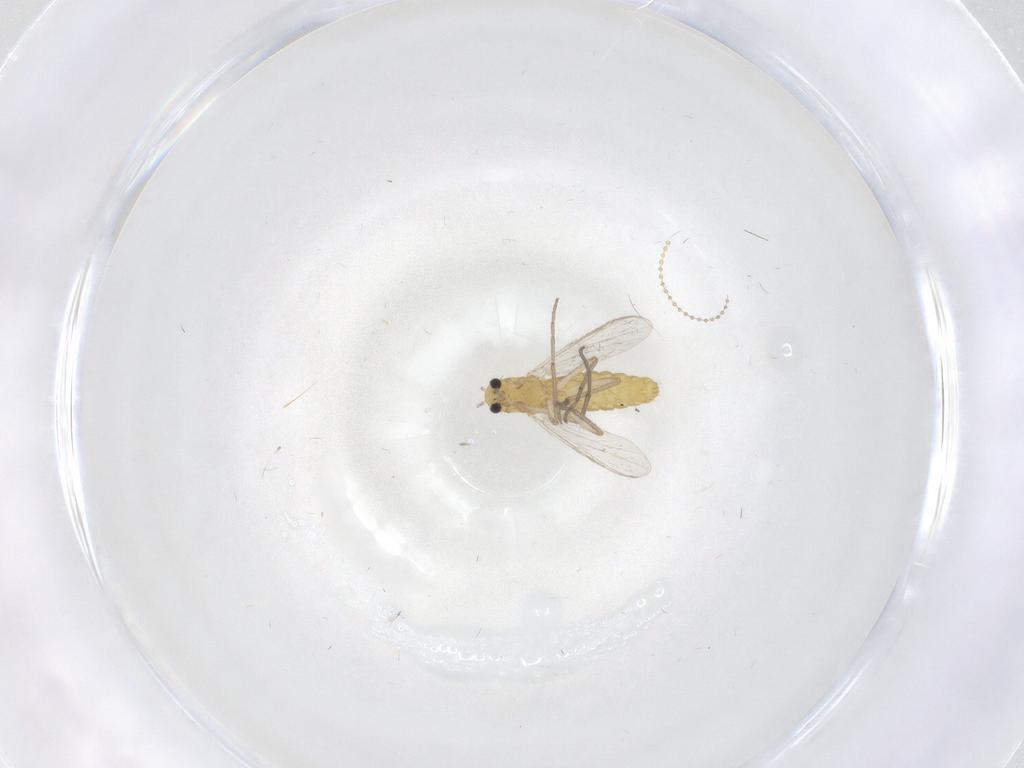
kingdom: Animalia
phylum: Arthropoda
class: Insecta
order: Diptera
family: Chironomidae
